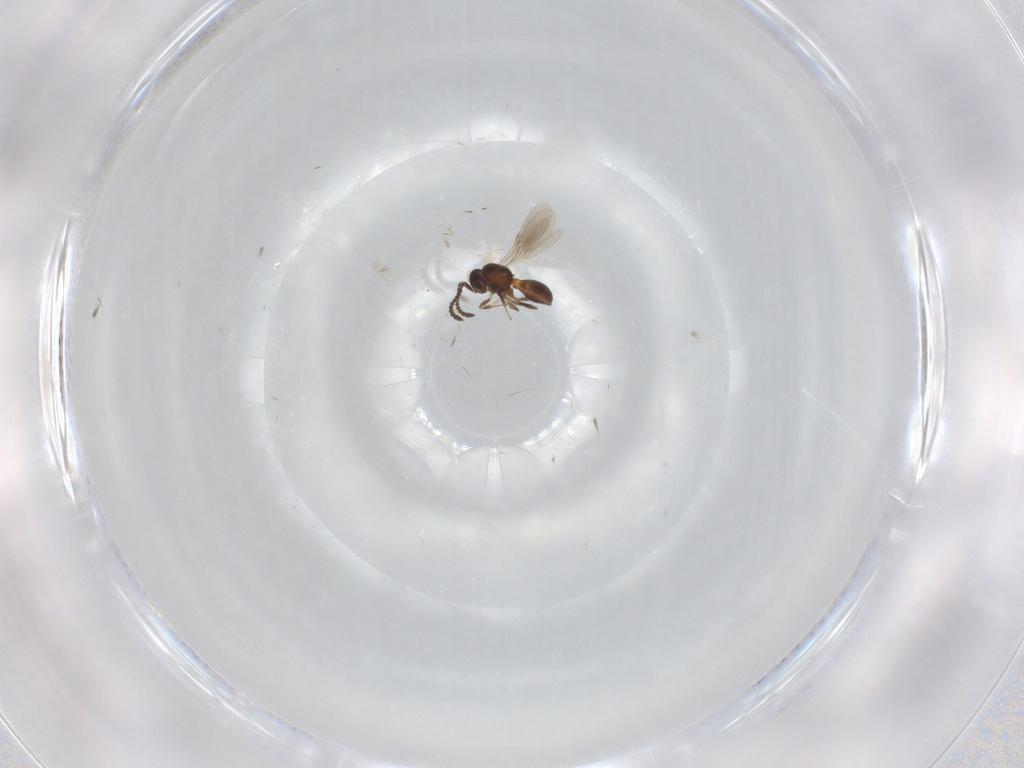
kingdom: Animalia
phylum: Arthropoda
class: Insecta
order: Hymenoptera
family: Scelionidae
